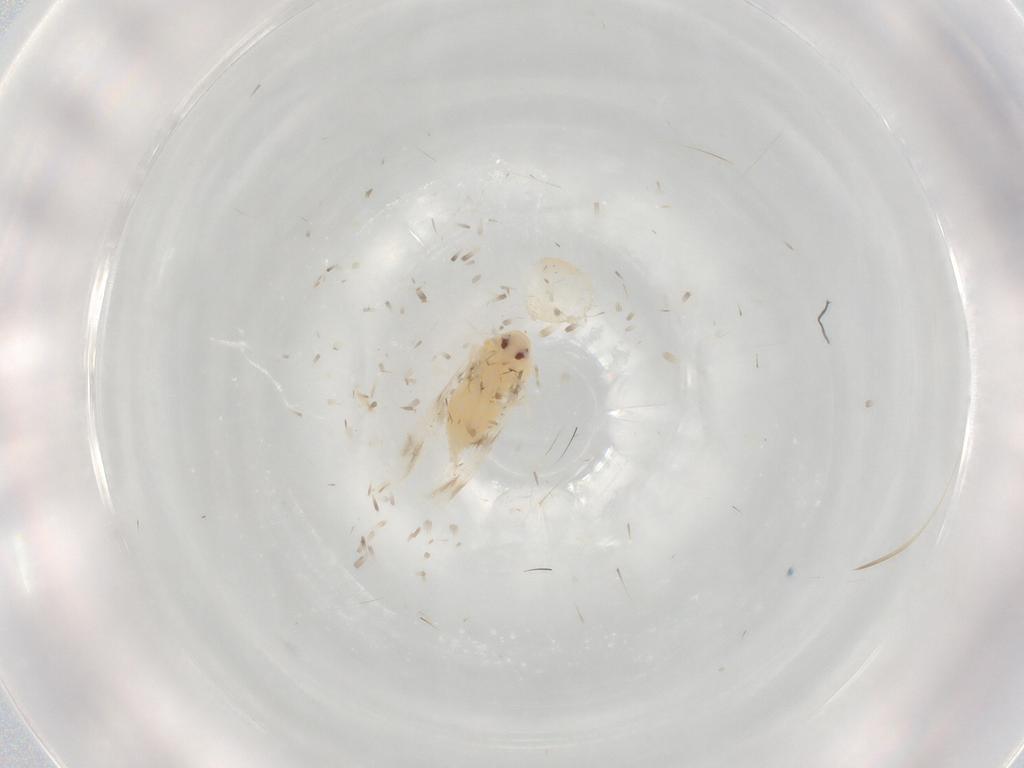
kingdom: Animalia
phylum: Arthropoda
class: Insecta
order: Hemiptera
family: Aleyrodidae
